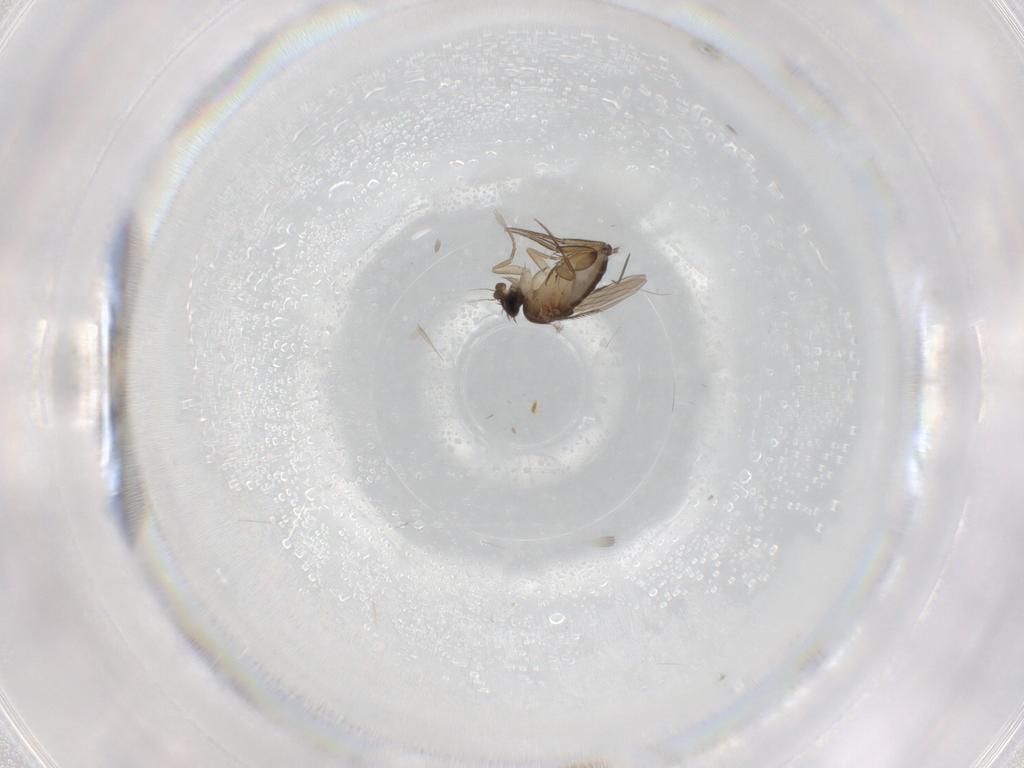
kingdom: Animalia
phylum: Arthropoda
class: Insecta
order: Diptera
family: Phoridae
